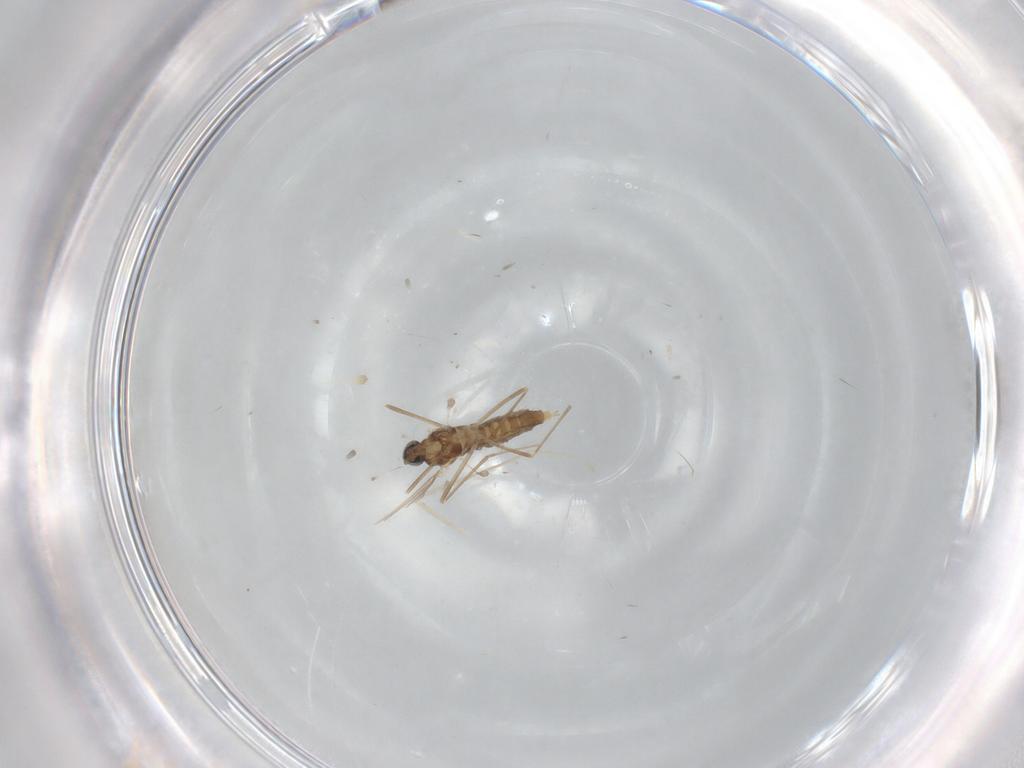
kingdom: Animalia
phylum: Arthropoda
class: Insecta
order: Diptera
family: Cecidomyiidae
